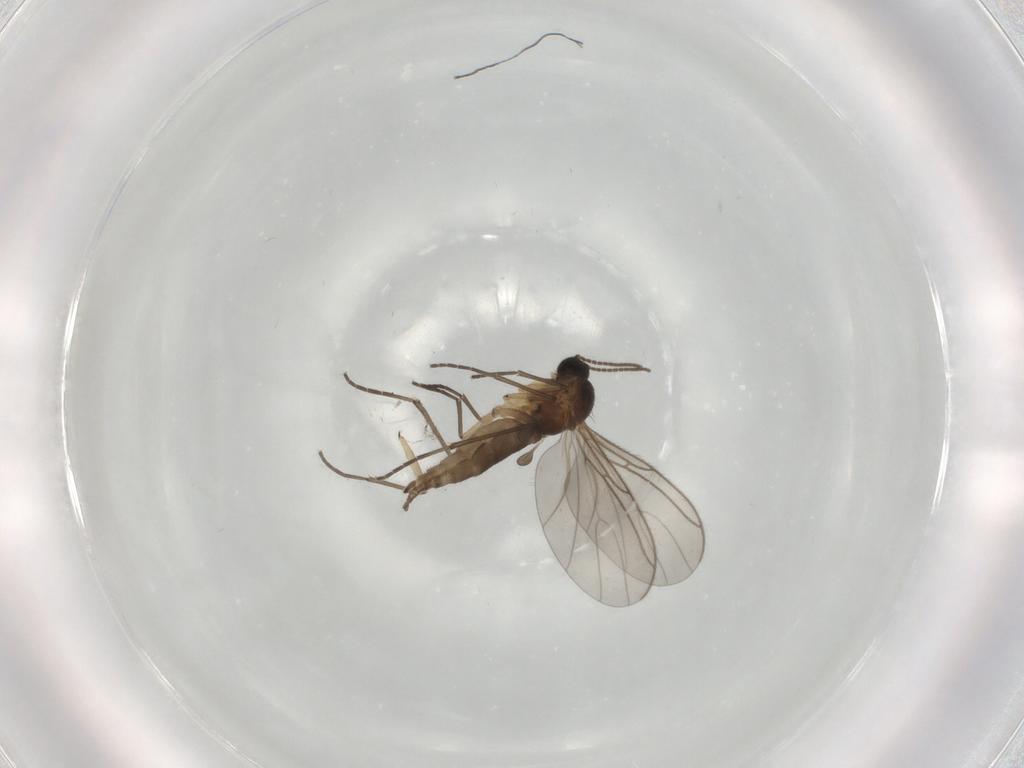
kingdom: Animalia
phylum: Arthropoda
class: Insecta
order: Diptera
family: Sciaridae
